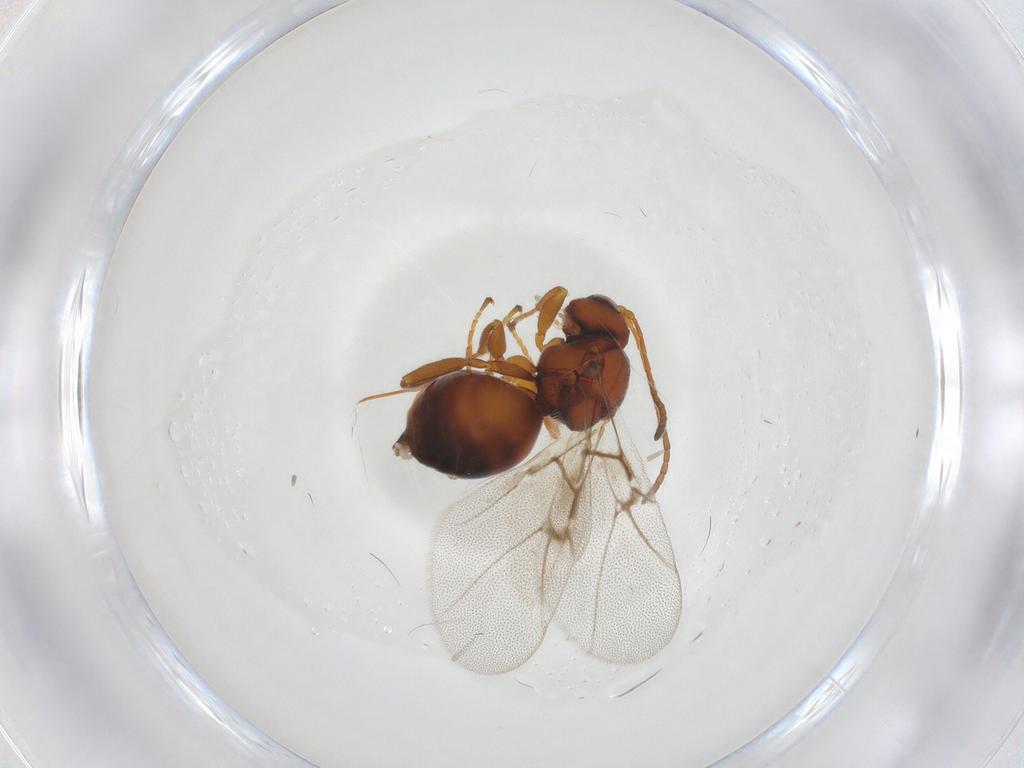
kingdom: Animalia
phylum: Arthropoda
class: Insecta
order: Hymenoptera
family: Cynipidae
